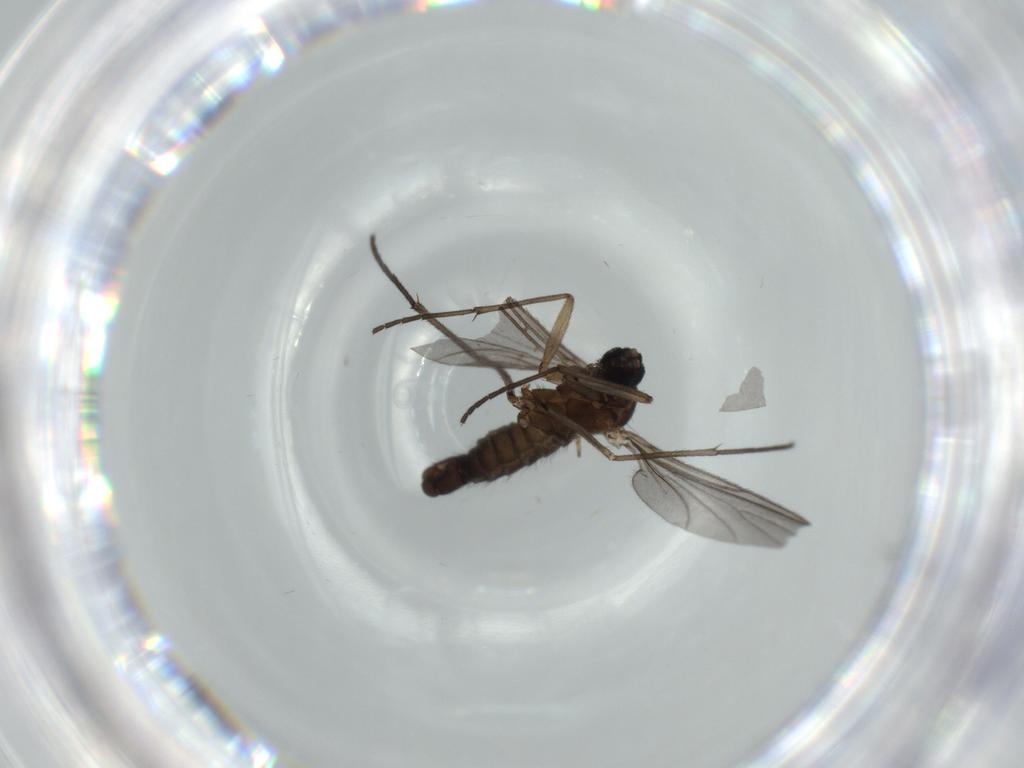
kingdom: Animalia
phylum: Arthropoda
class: Insecta
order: Diptera
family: Sciaridae
